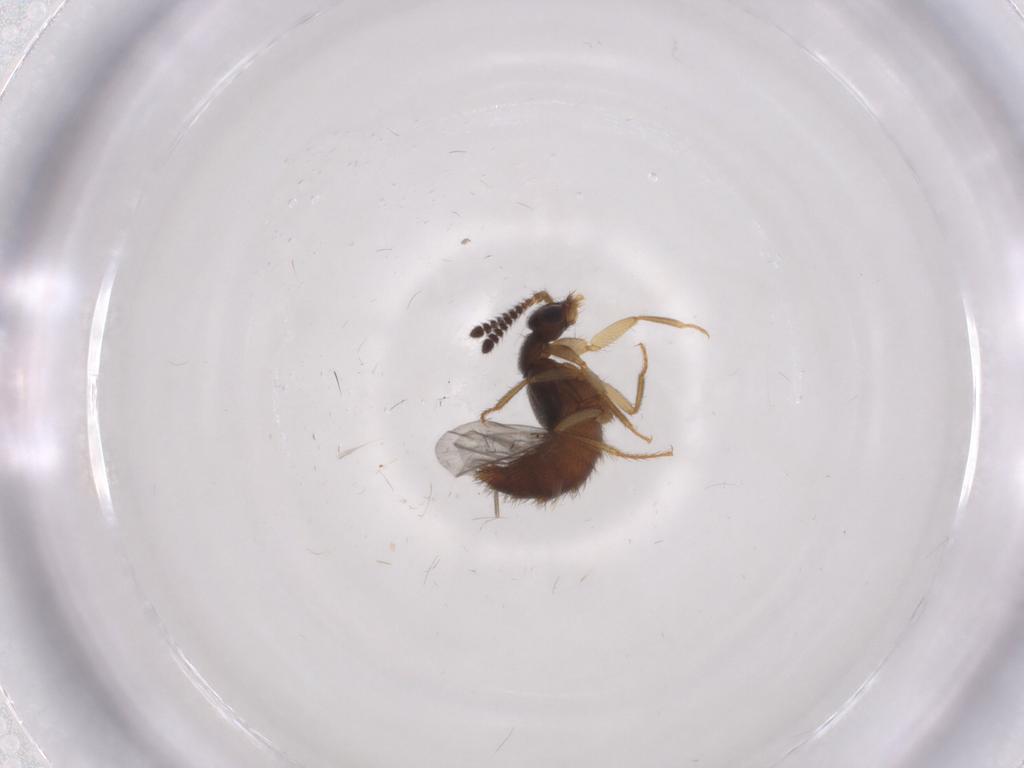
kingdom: Animalia
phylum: Arthropoda
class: Insecta
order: Coleoptera
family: Staphylinidae
